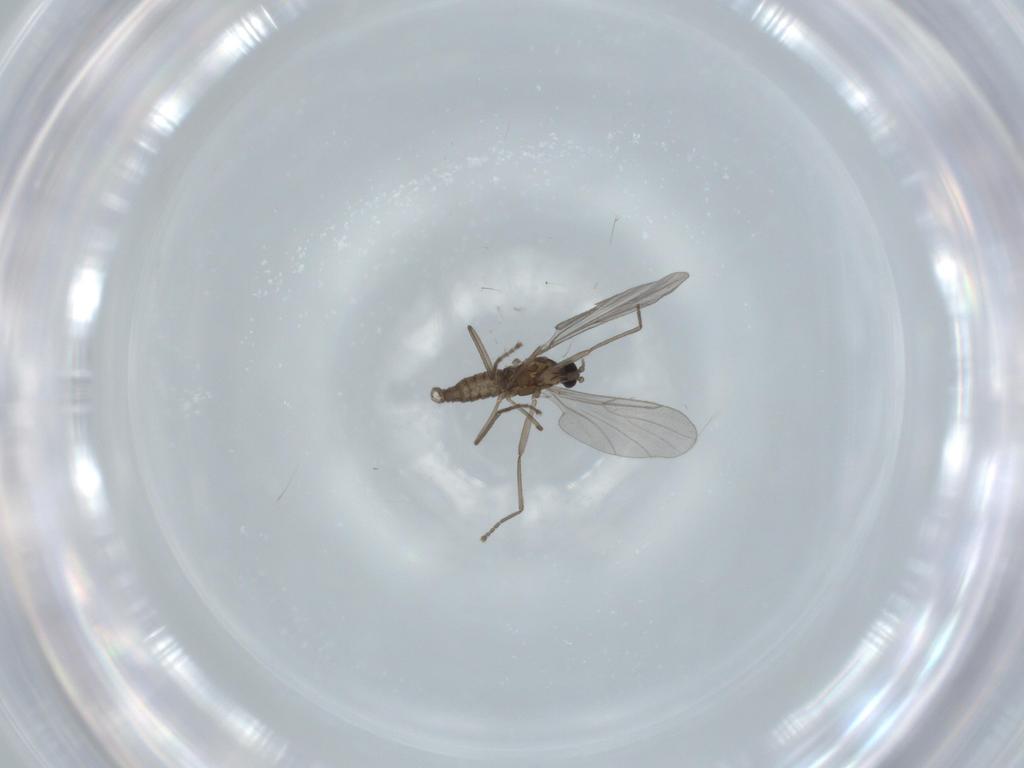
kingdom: Animalia
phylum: Arthropoda
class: Insecta
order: Diptera
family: Cecidomyiidae
